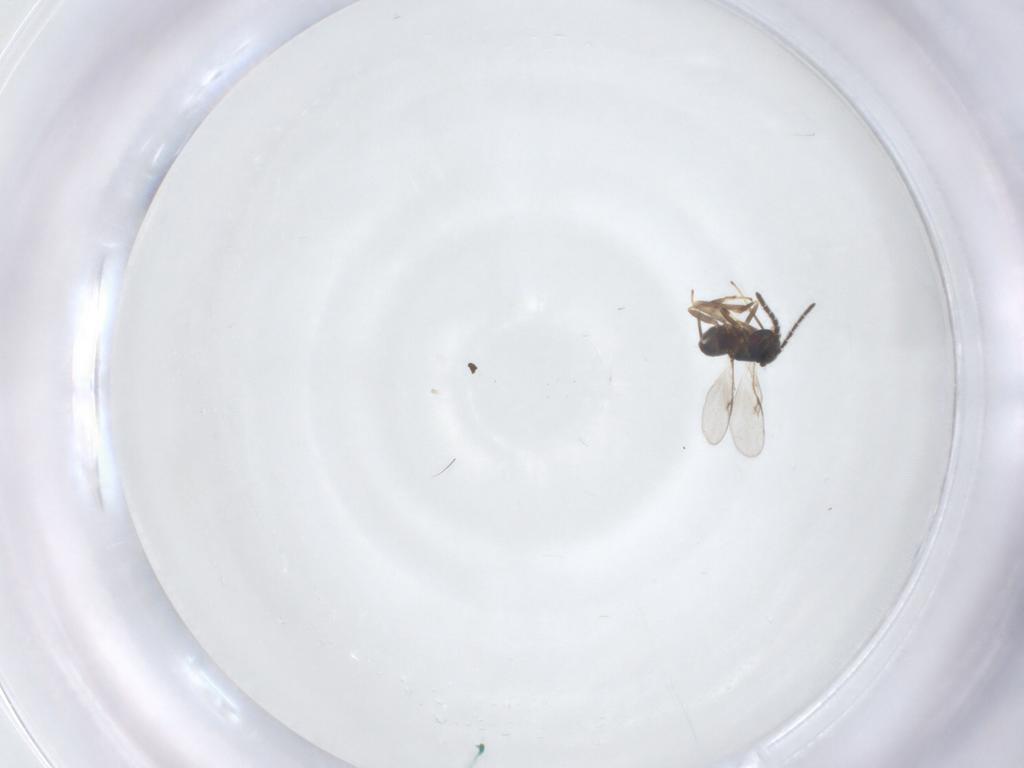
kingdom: Animalia
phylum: Arthropoda
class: Insecta
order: Hymenoptera
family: Encyrtidae
